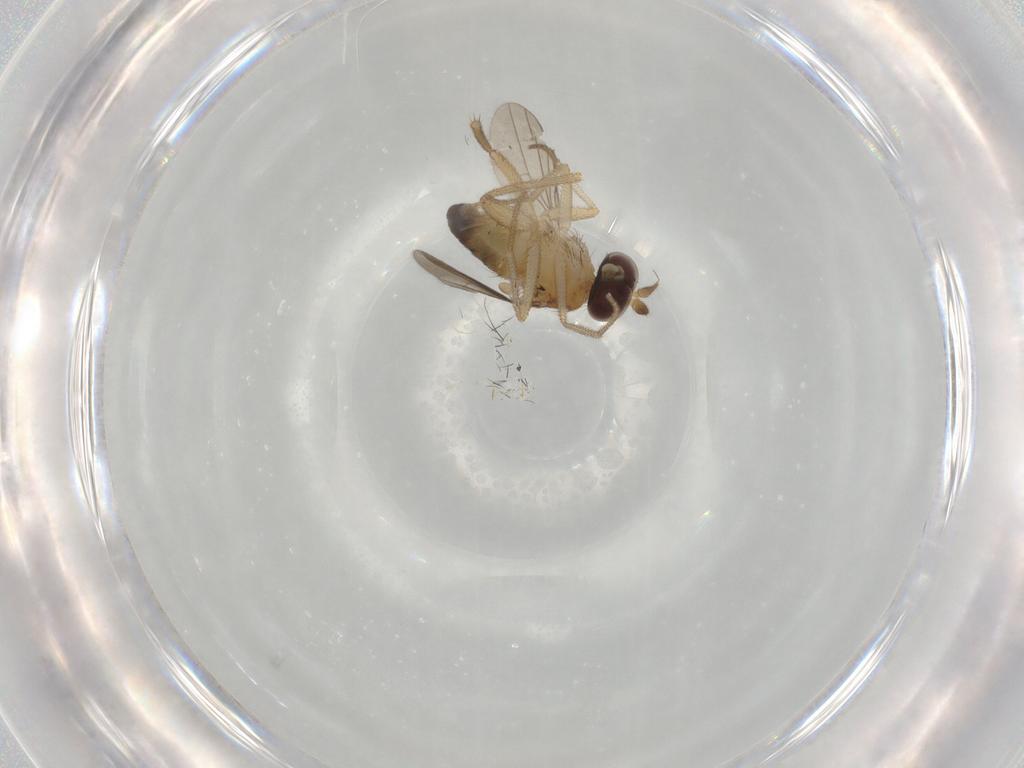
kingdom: Animalia
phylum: Arthropoda
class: Insecta
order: Diptera
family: Dolichopodidae
